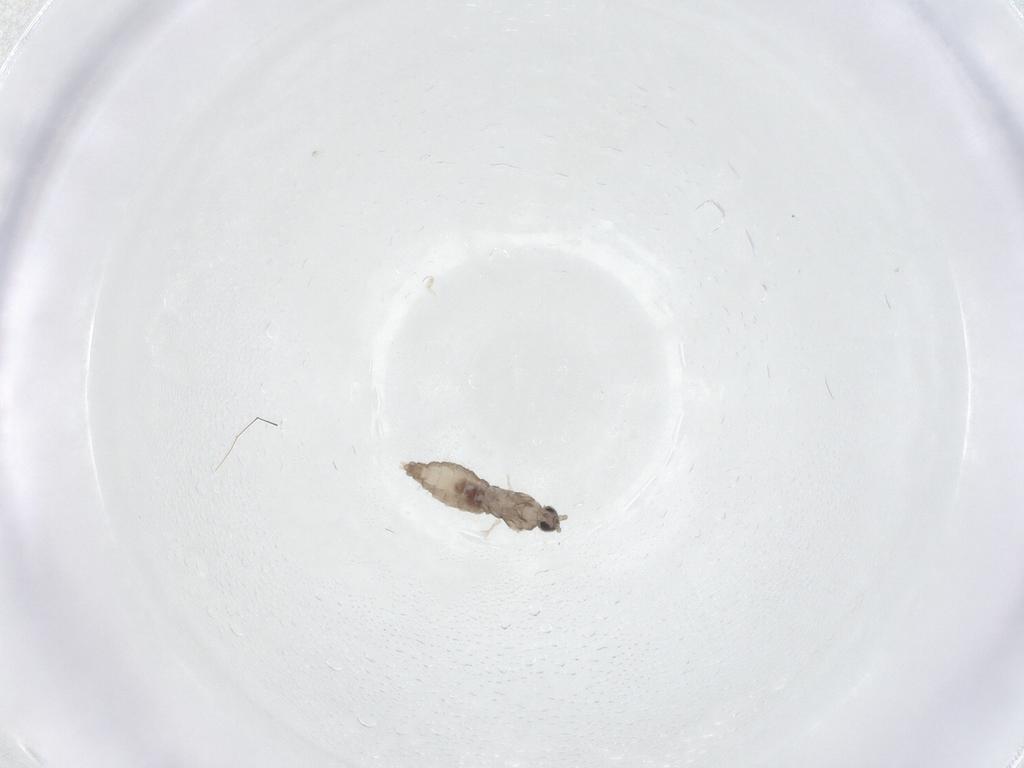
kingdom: Animalia
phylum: Arthropoda
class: Insecta
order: Diptera
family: Cecidomyiidae
